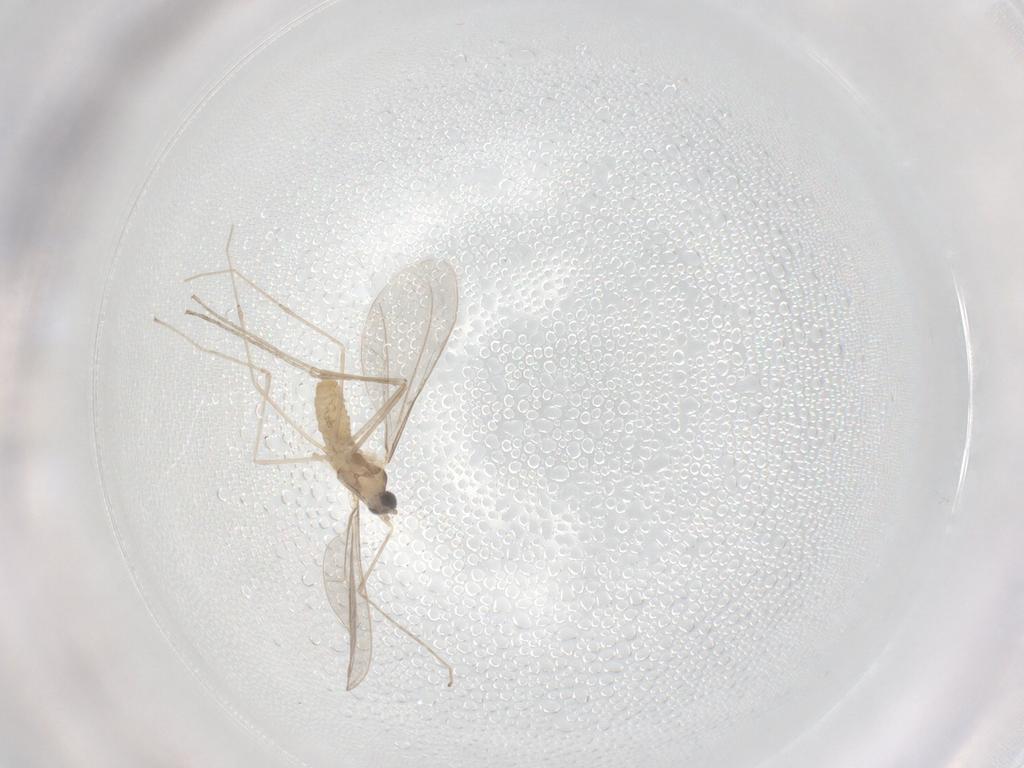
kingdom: Animalia
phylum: Arthropoda
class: Insecta
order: Diptera
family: Cecidomyiidae
